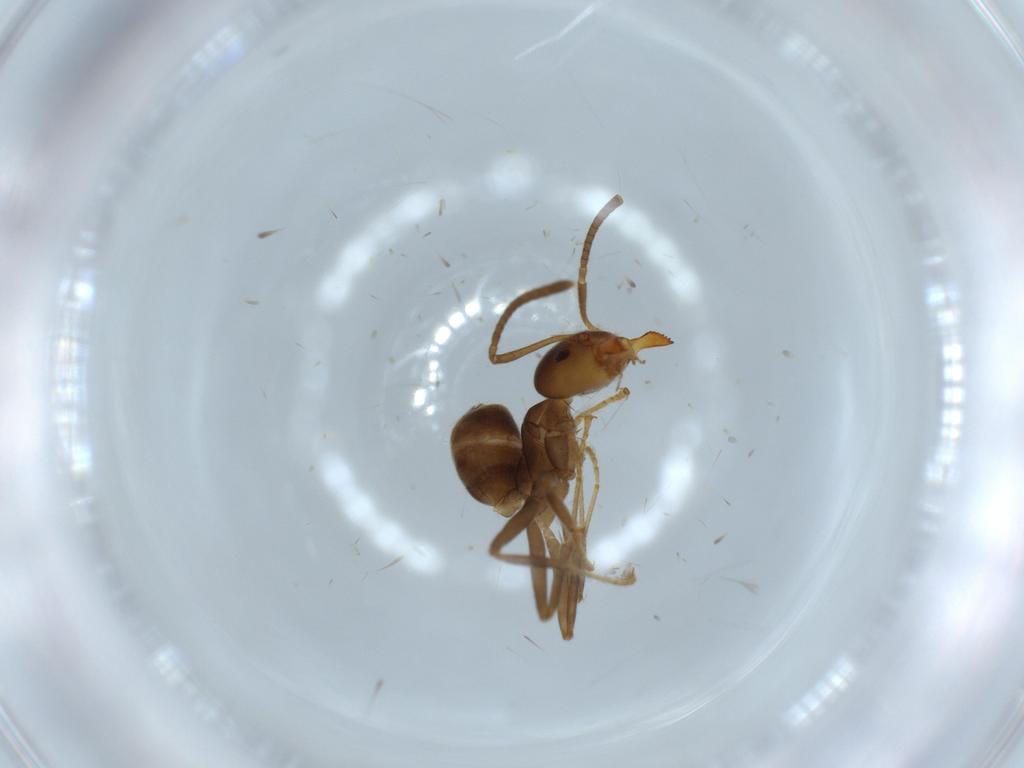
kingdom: Animalia
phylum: Arthropoda
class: Insecta
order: Hymenoptera
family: Formicidae
